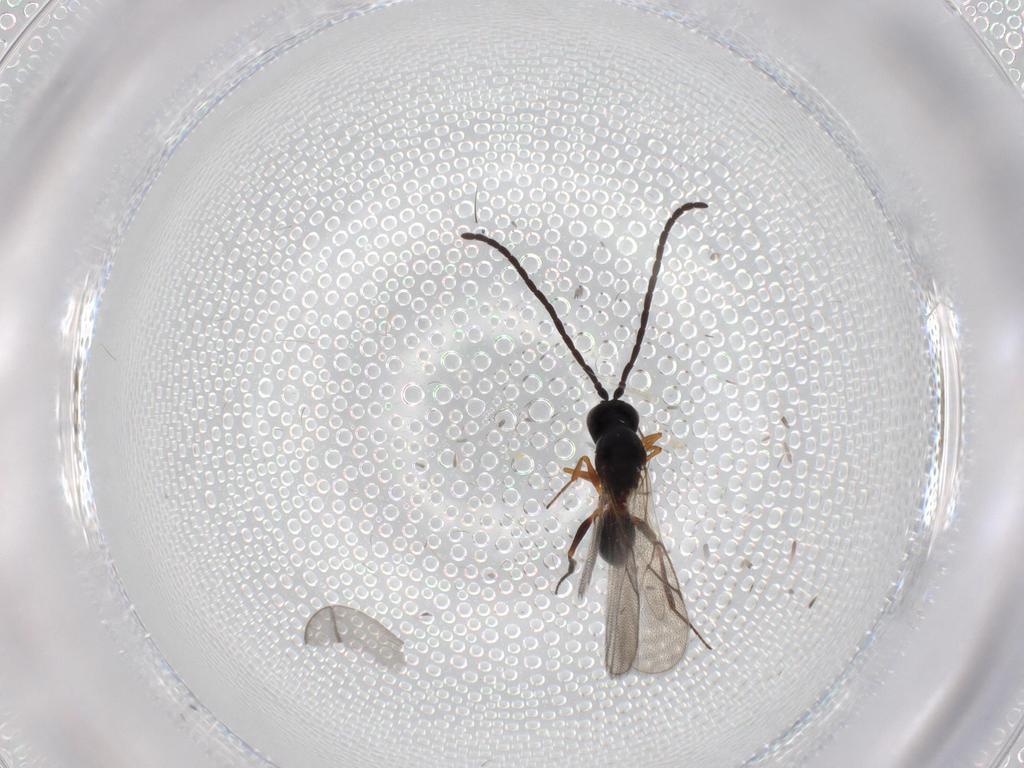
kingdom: Animalia
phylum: Arthropoda
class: Insecta
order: Hymenoptera
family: Figitidae
